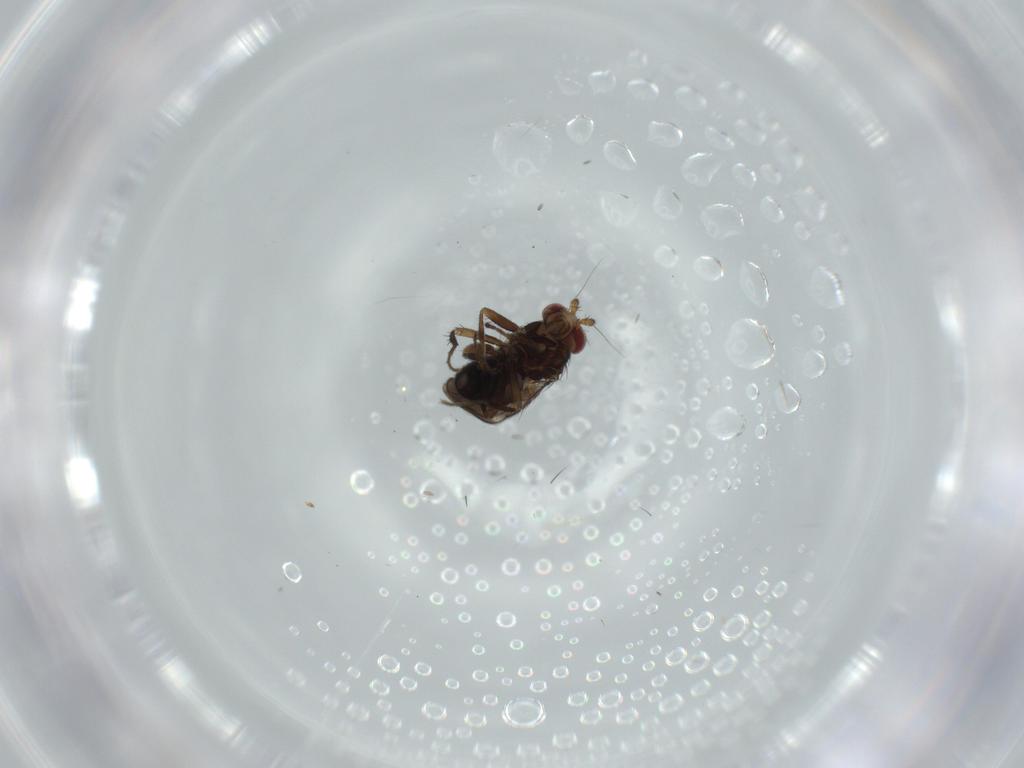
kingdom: Animalia
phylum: Arthropoda
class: Insecta
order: Diptera
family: Sphaeroceridae
